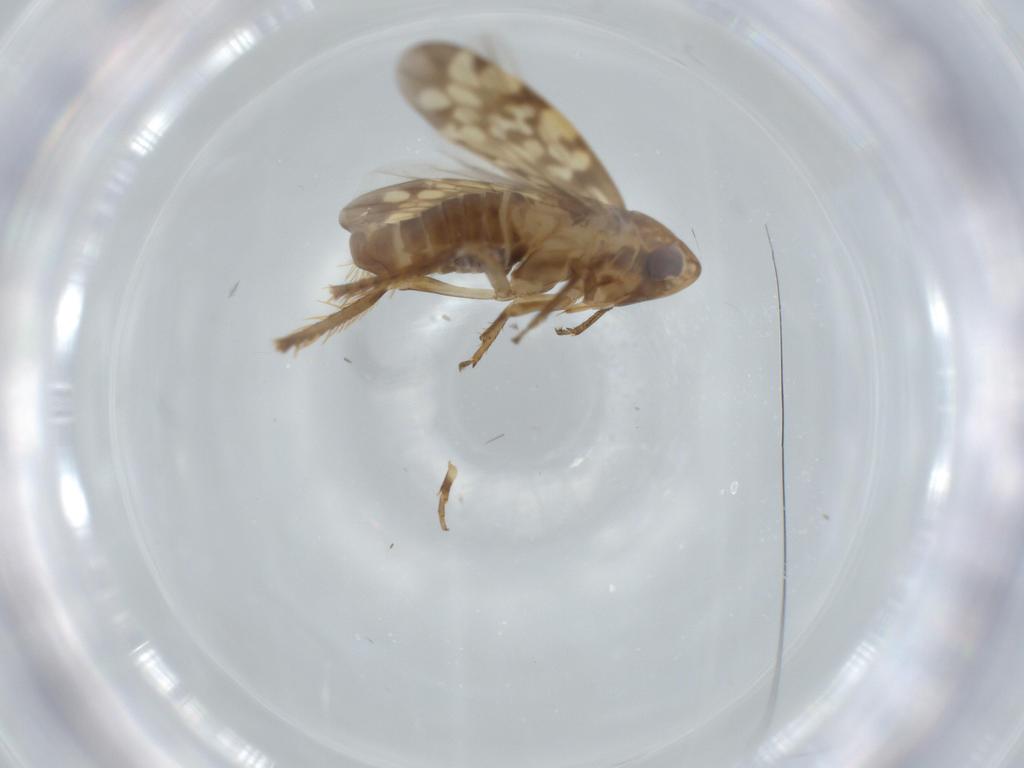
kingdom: Animalia
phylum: Arthropoda
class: Insecta
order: Hemiptera
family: Cicadellidae
